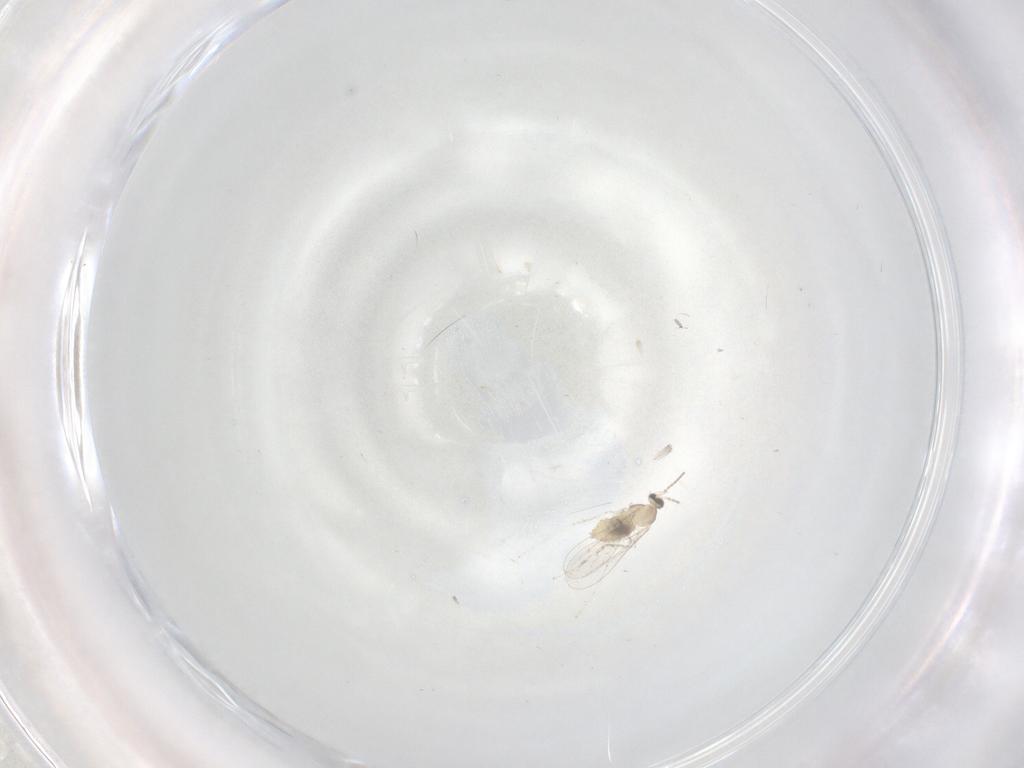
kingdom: Animalia
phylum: Arthropoda
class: Insecta
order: Diptera
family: Cecidomyiidae
